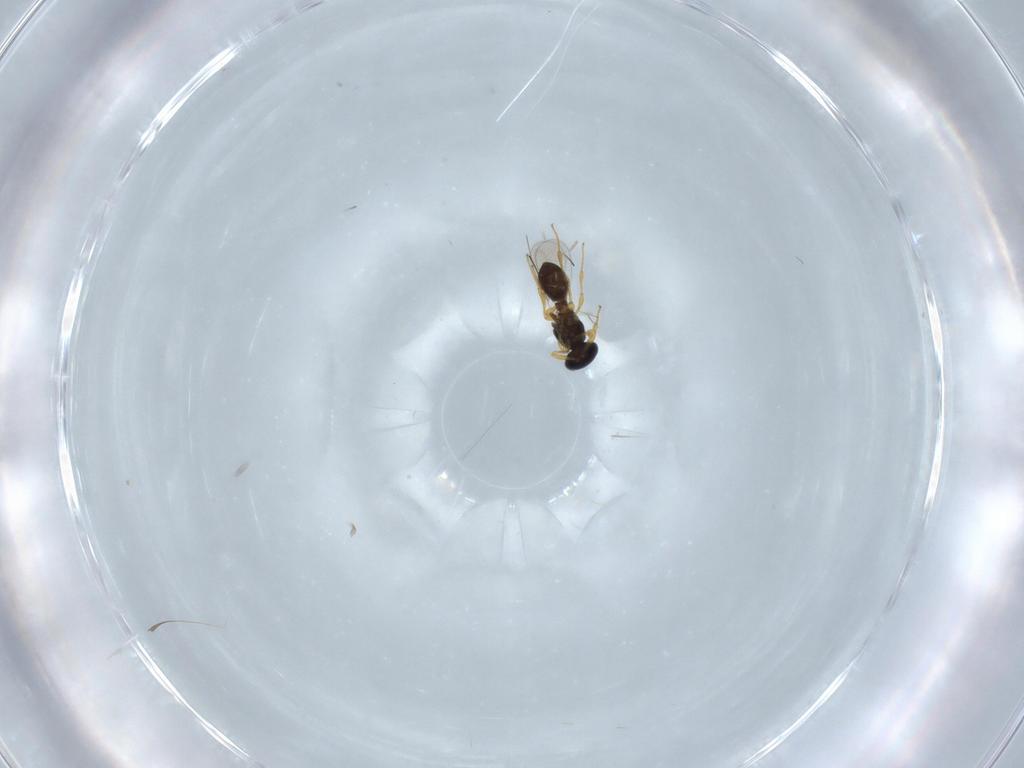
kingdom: Animalia
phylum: Arthropoda
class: Insecta
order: Hymenoptera
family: Platygastridae
